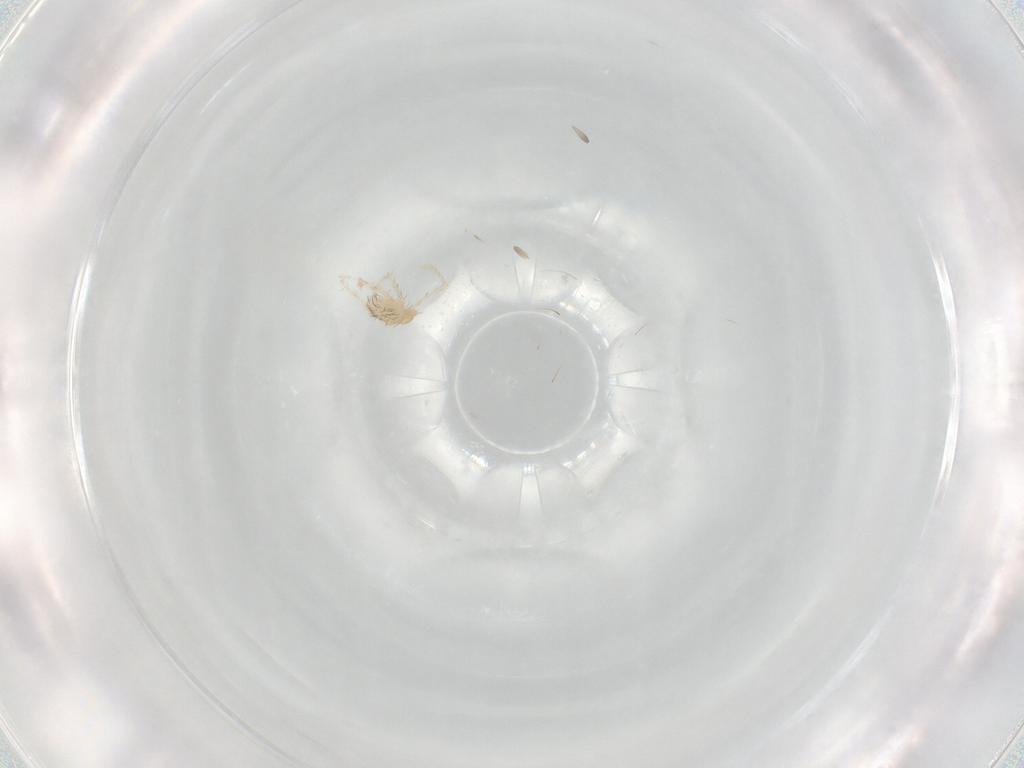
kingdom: Animalia
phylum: Arthropoda
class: Arachnida
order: Trombidiformes
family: Erythraeidae
